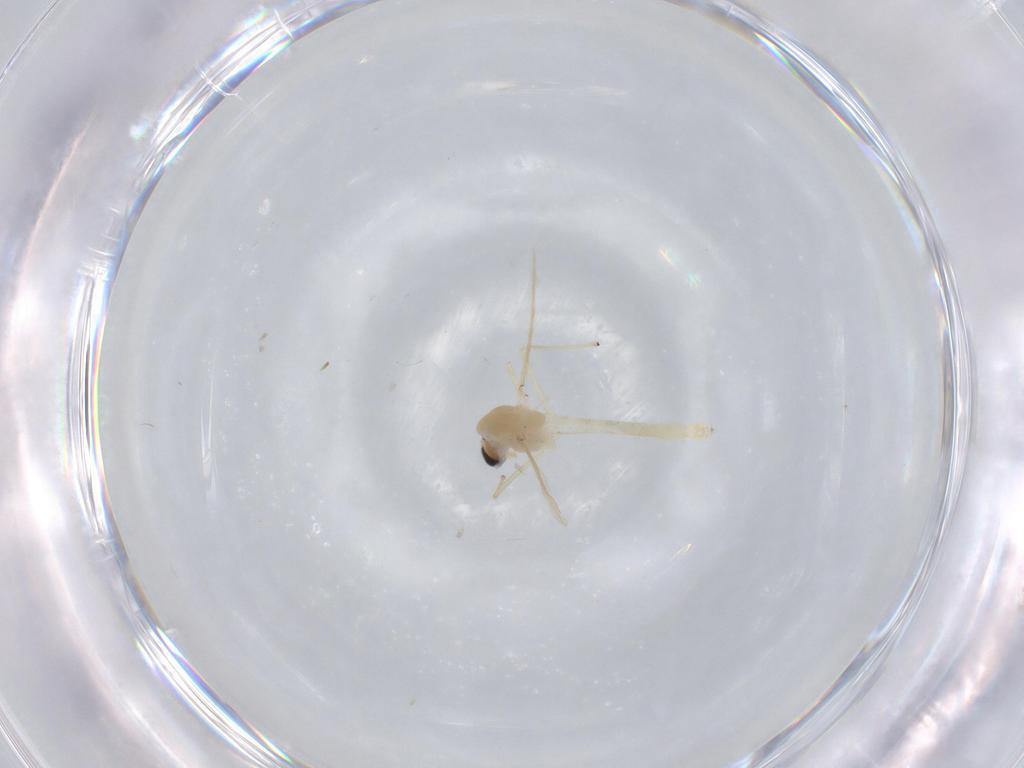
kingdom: Animalia
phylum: Arthropoda
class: Insecta
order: Diptera
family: Chironomidae
